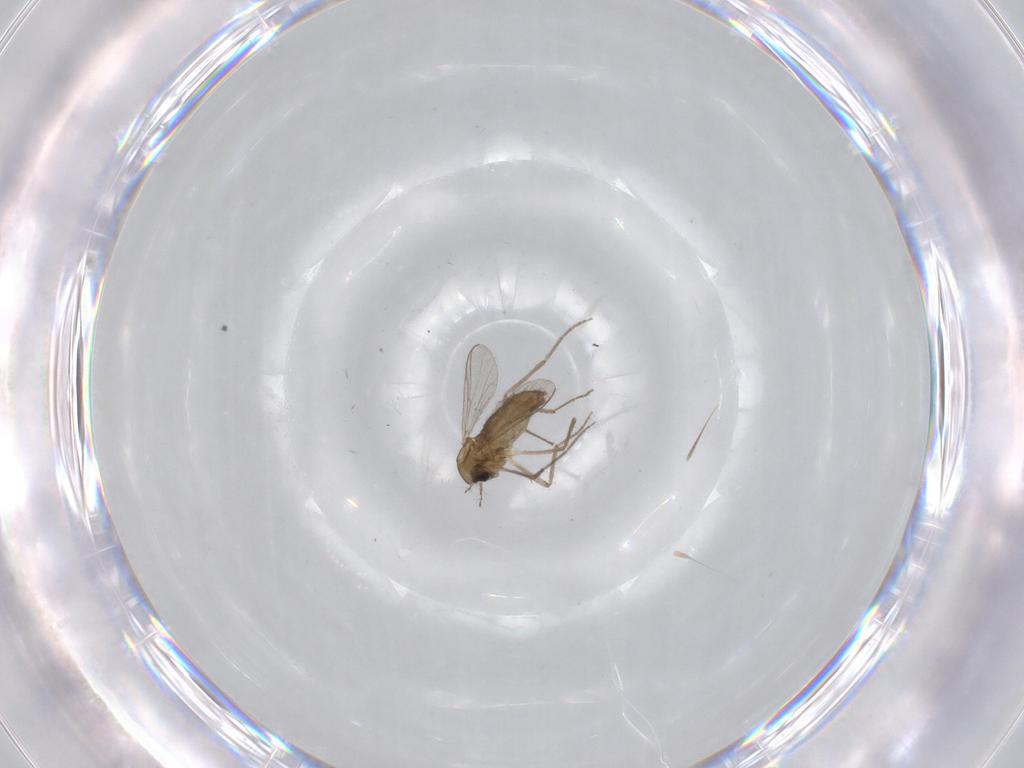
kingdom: Animalia
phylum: Arthropoda
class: Insecta
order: Diptera
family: Chironomidae
